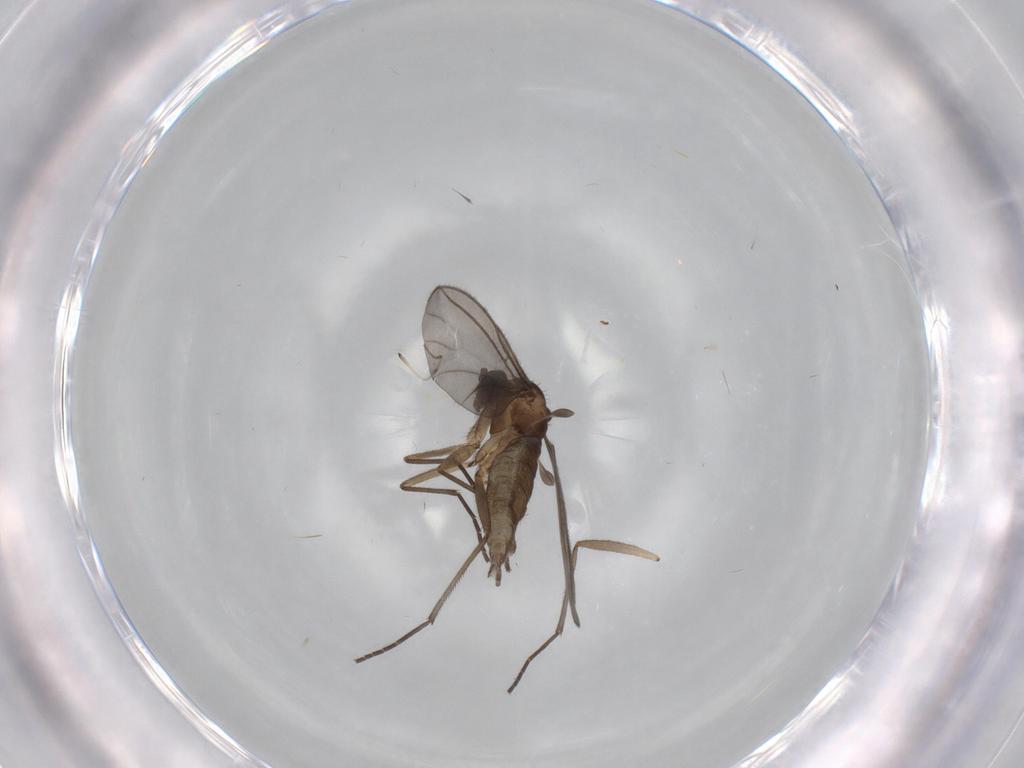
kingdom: Animalia
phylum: Arthropoda
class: Insecta
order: Diptera
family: Sciaridae
